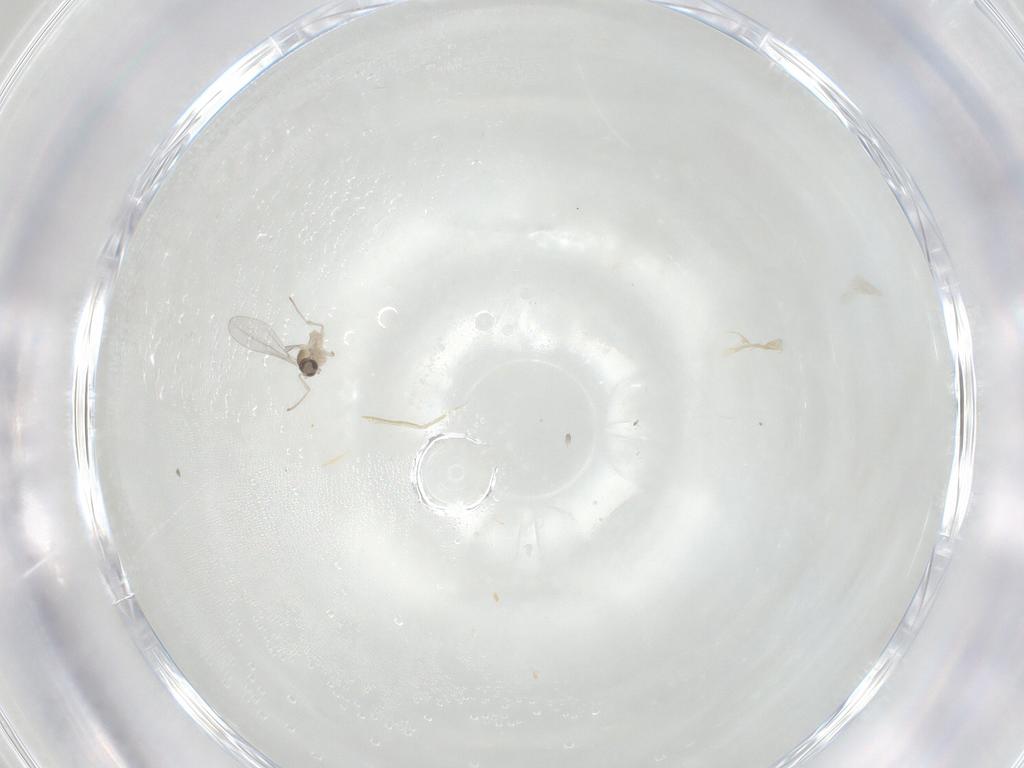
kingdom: Animalia
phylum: Arthropoda
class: Insecta
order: Diptera
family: Cecidomyiidae
